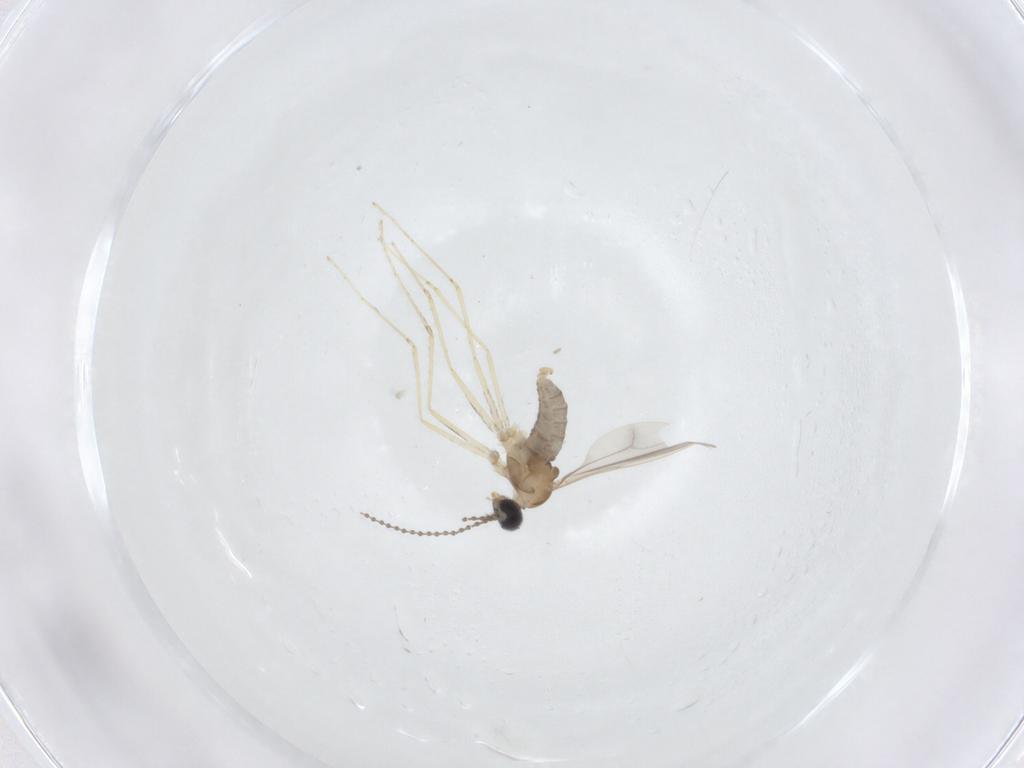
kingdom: Animalia
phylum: Arthropoda
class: Insecta
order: Diptera
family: Cecidomyiidae
